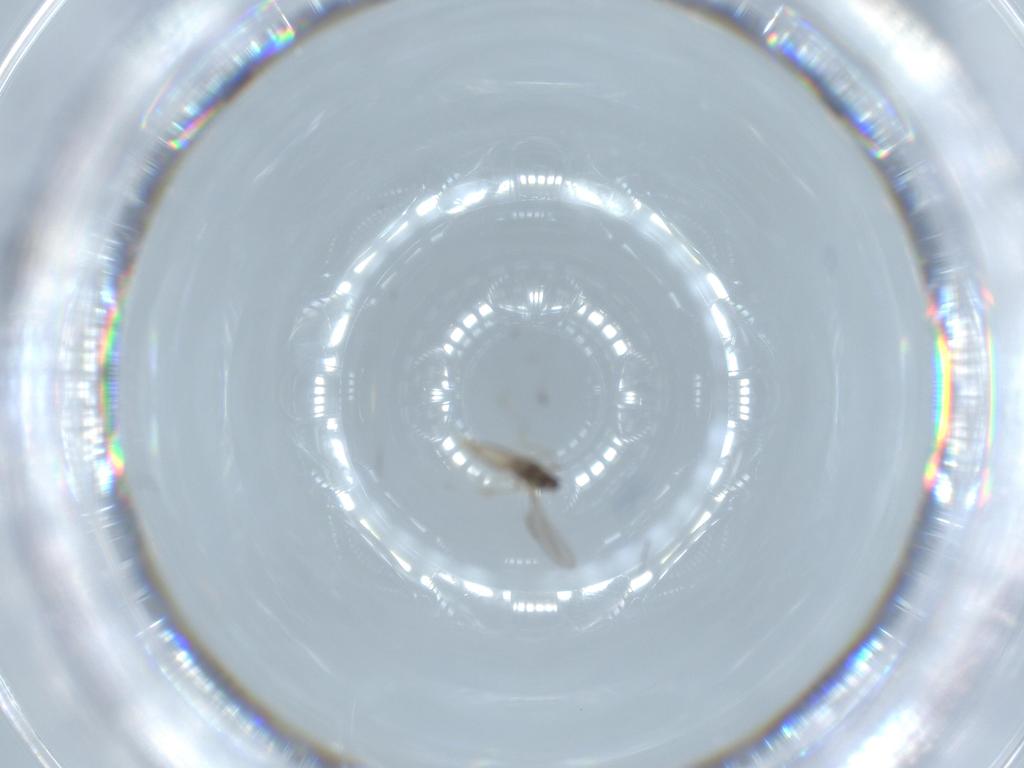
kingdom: Animalia
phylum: Arthropoda
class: Insecta
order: Diptera
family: Cecidomyiidae
